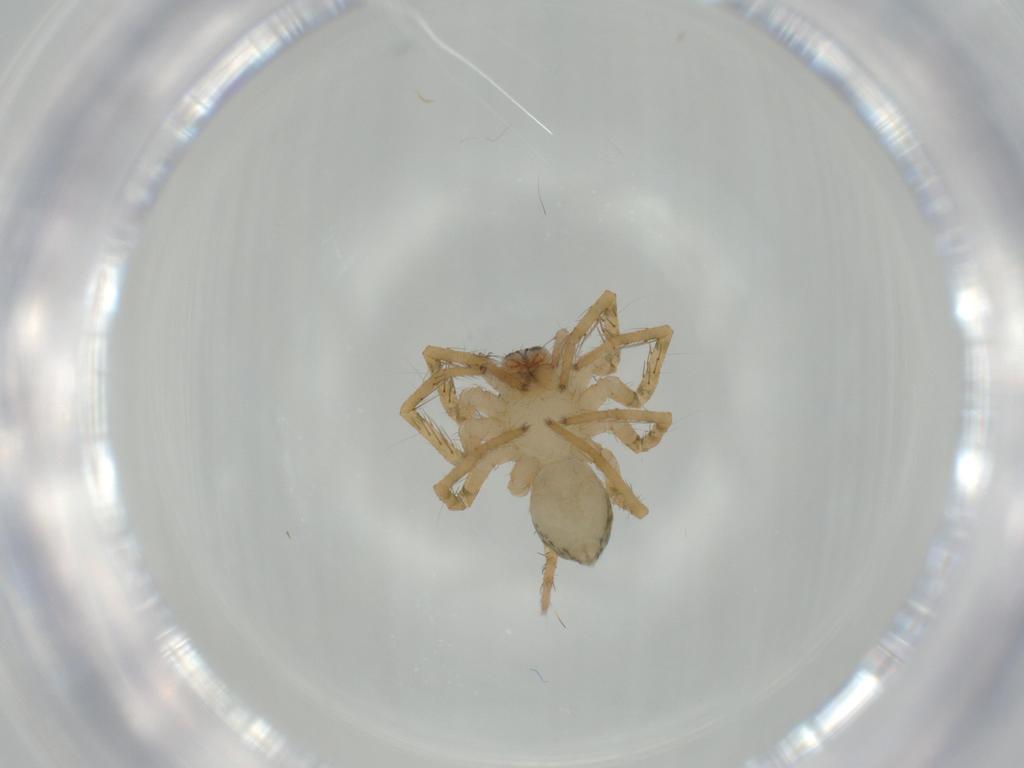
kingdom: Animalia
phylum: Arthropoda
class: Arachnida
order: Araneae
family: Ctenidae
